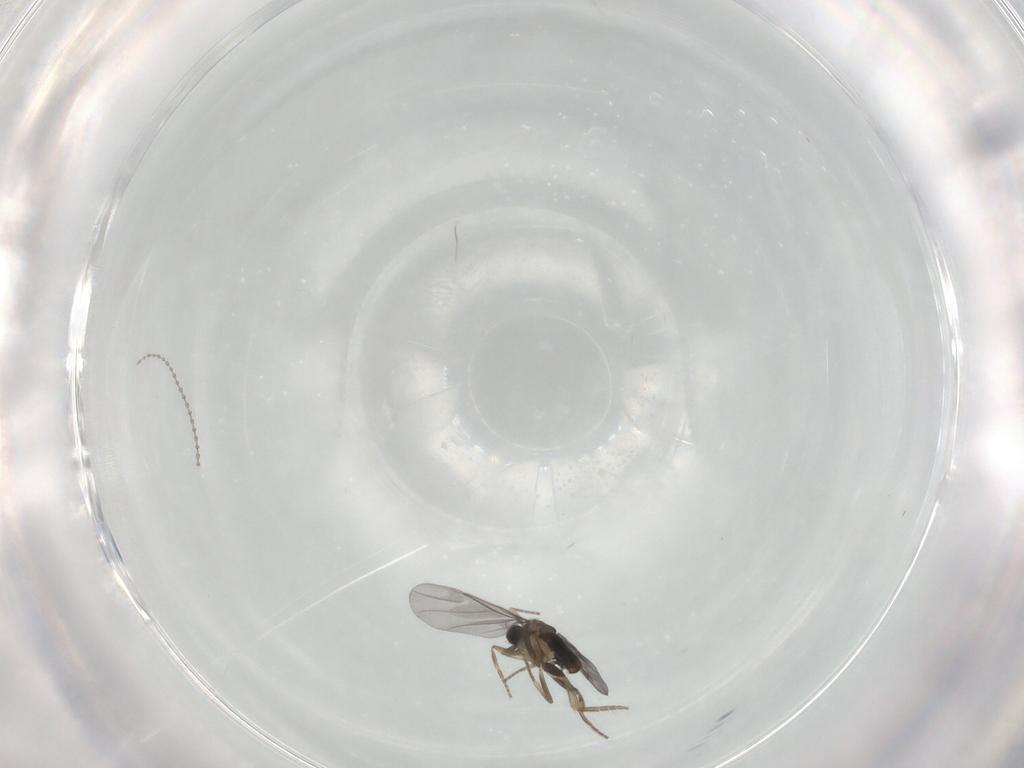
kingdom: Animalia
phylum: Arthropoda
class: Insecta
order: Diptera
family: Cecidomyiidae
